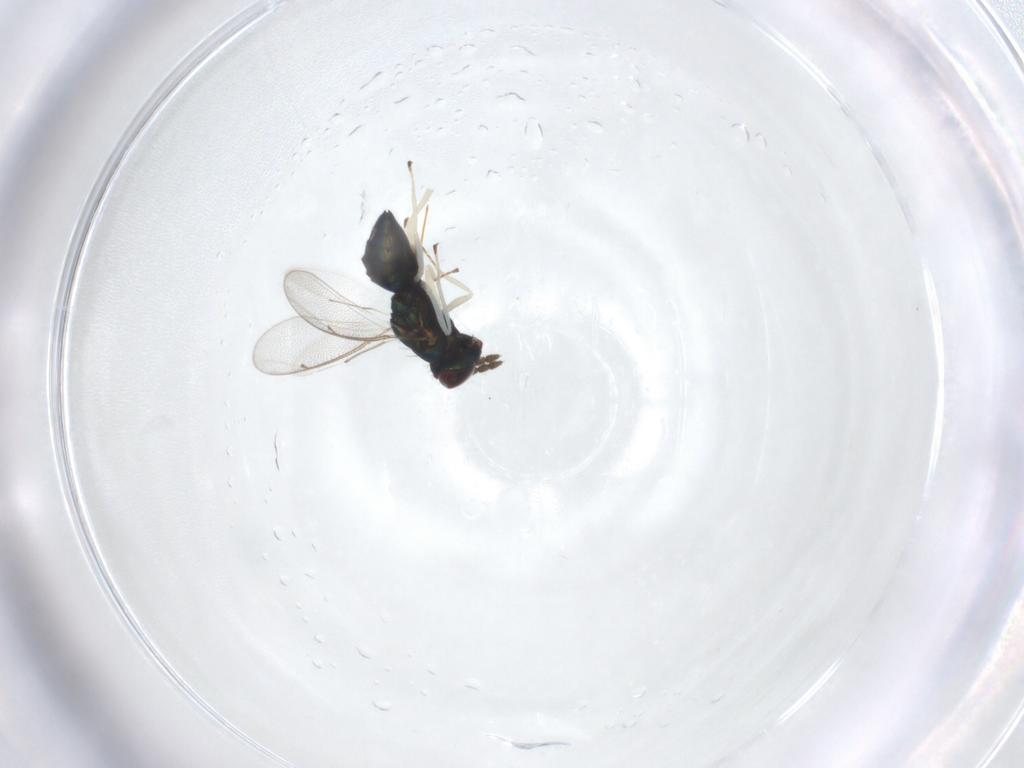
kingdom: Animalia
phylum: Arthropoda
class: Insecta
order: Hymenoptera
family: Eulophidae
